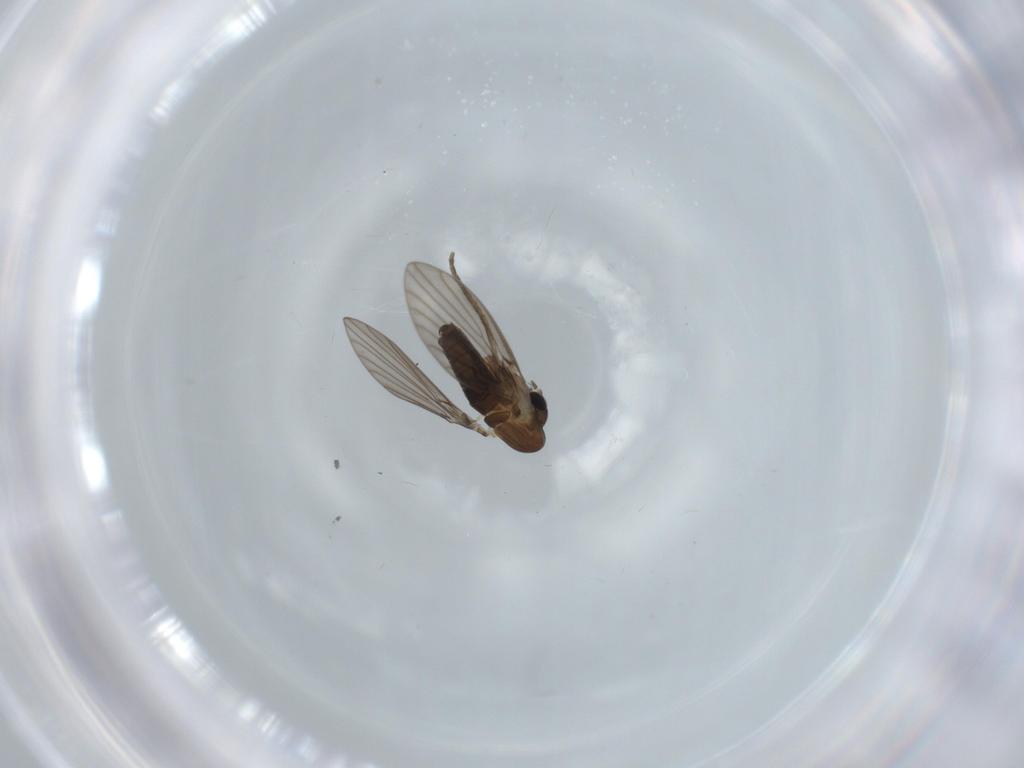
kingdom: Animalia
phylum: Arthropoda
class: Insecta
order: Diptera
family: Psychodidae
